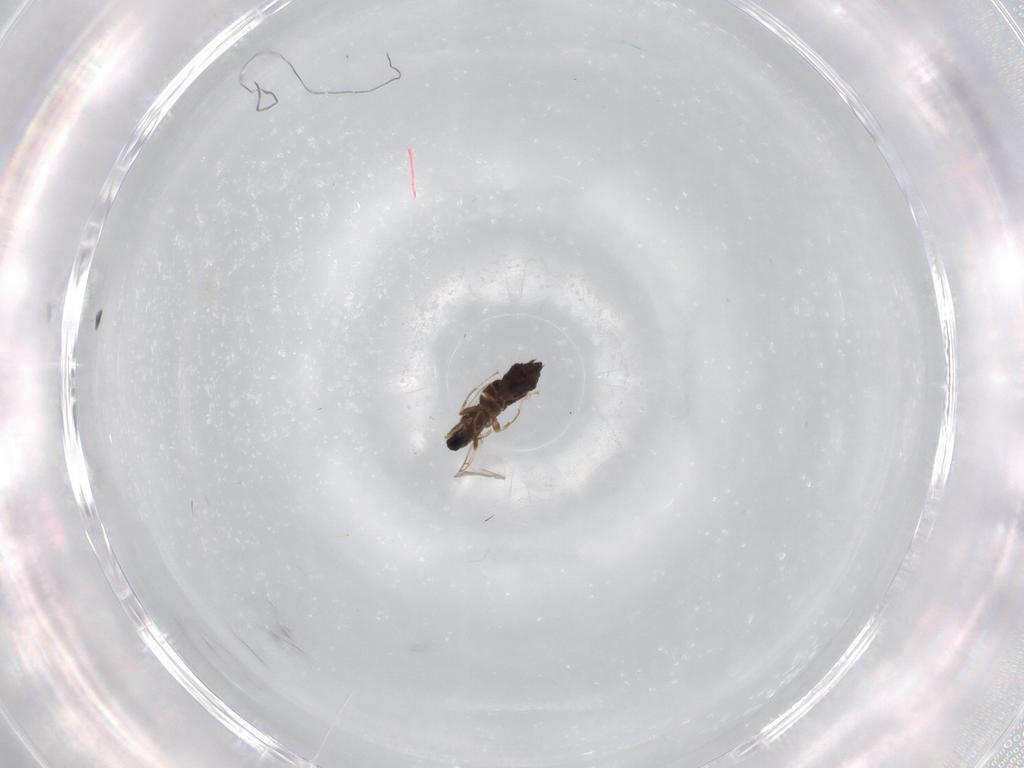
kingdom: Animalia
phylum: Arthropoda
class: Insecta
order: Diptera
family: Scatopsidae
